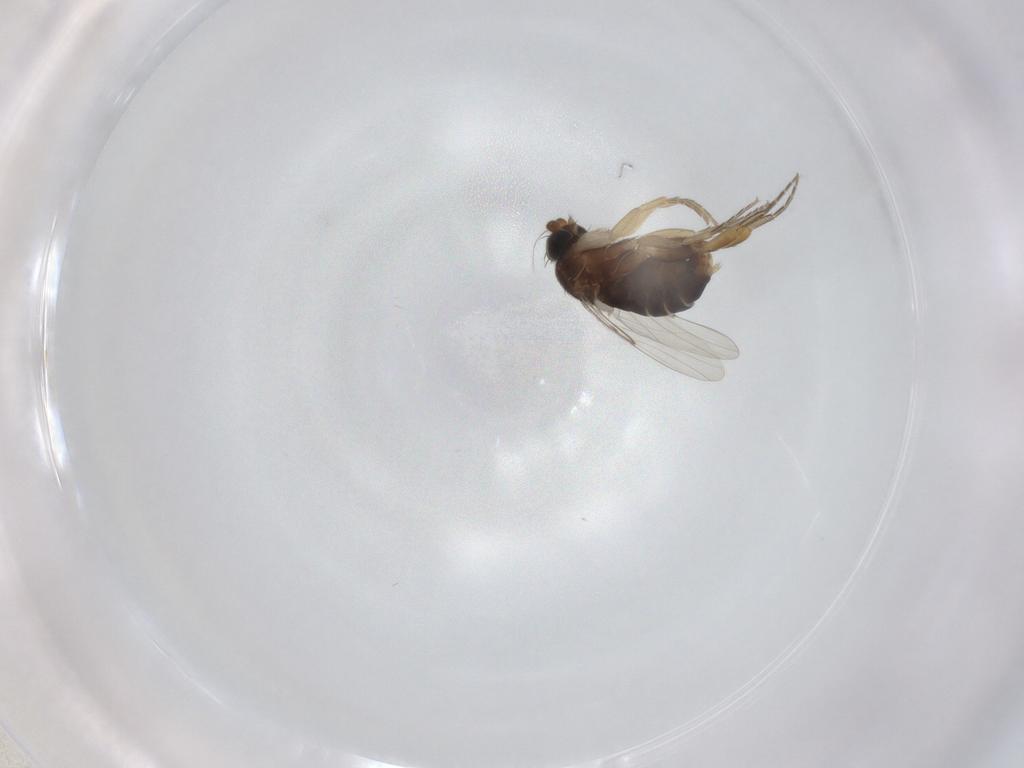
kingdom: Animalia
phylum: Arthropoda
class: Insecta
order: Diptera
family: Phoridae
